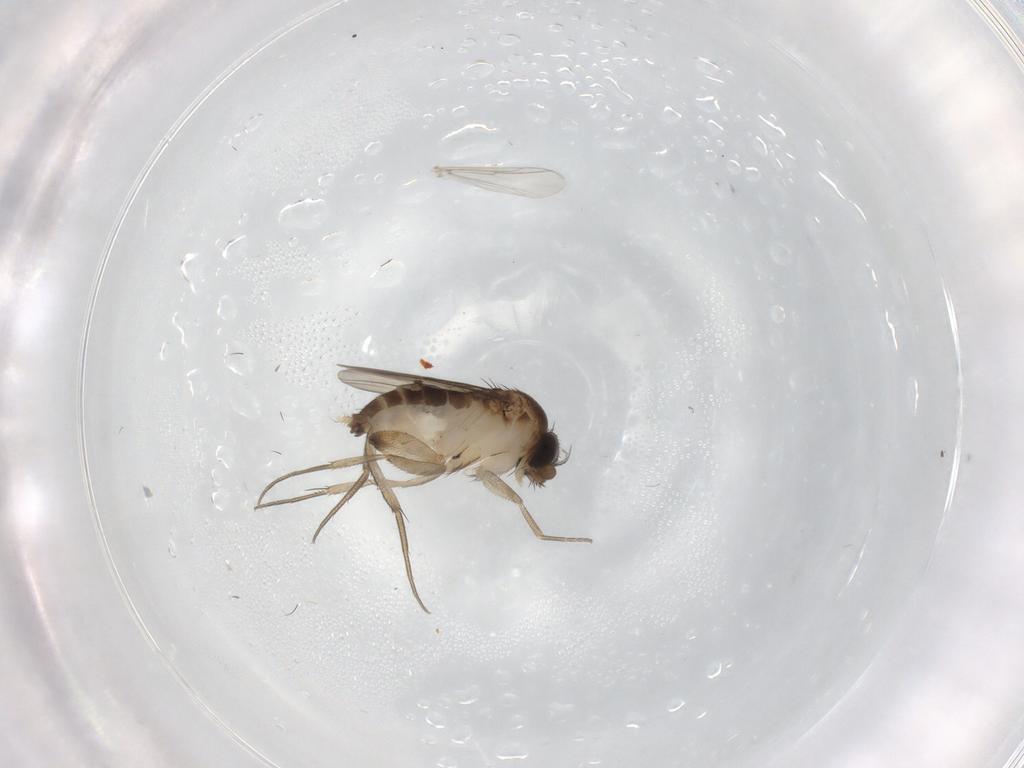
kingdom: Animalia
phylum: Arthropoda
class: Insecta
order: Diptera
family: Phoridae
